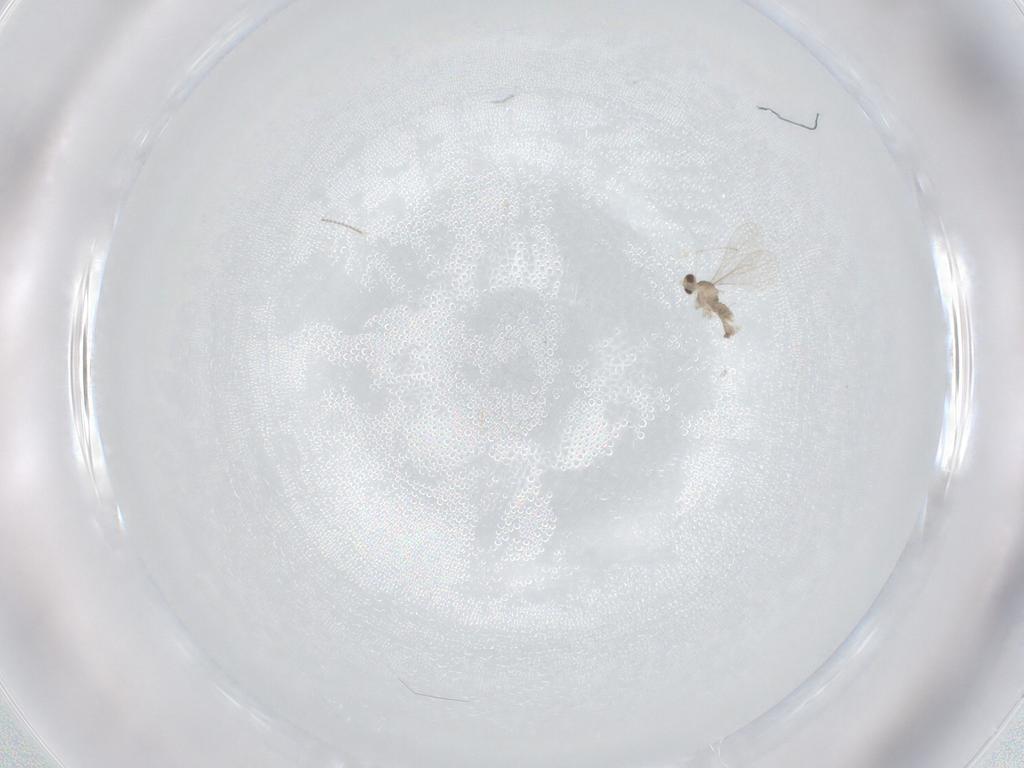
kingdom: Animalia
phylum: Arthropoda
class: Insecta
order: Diptera
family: Cecidomyiidae
